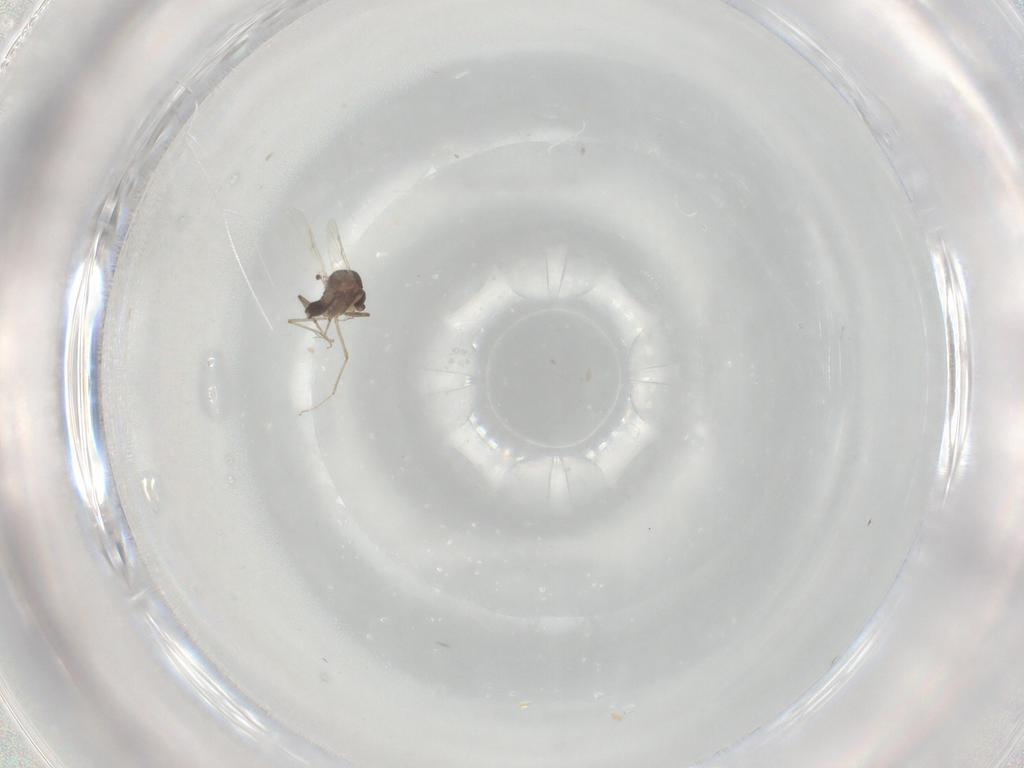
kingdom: Animalia
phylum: Arthropoda
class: Insecta
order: Diptera
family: Ceratopogonidae
